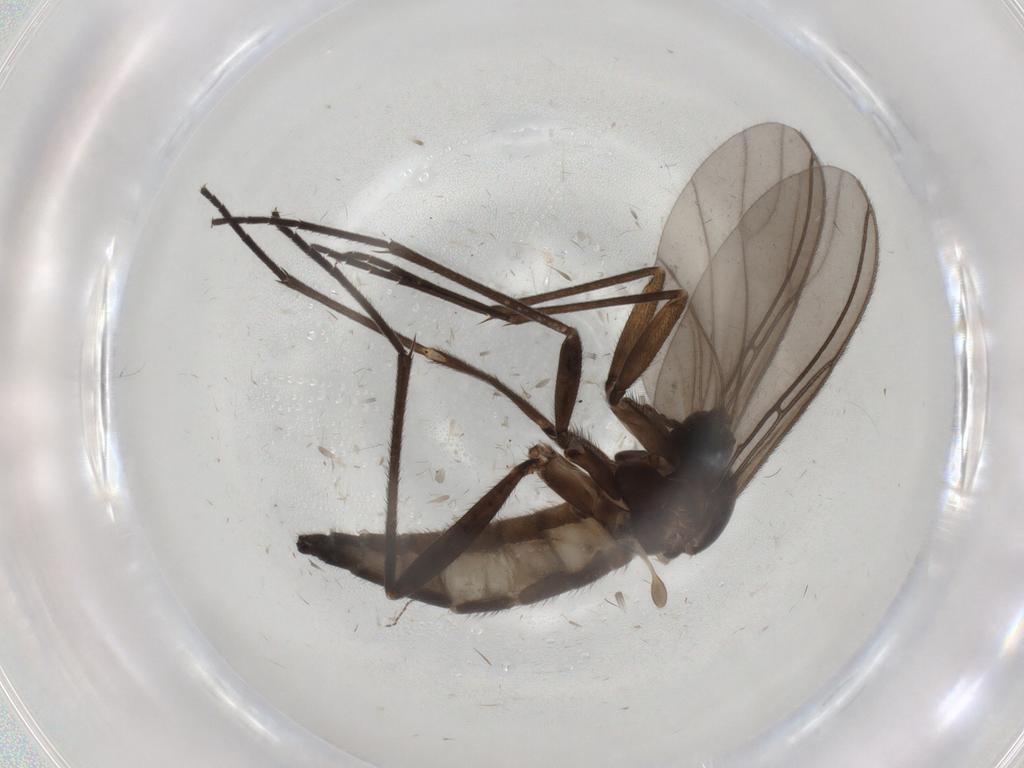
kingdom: Animalia
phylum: Arthropoda
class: Insecta
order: Diptera
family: Sciaridae
